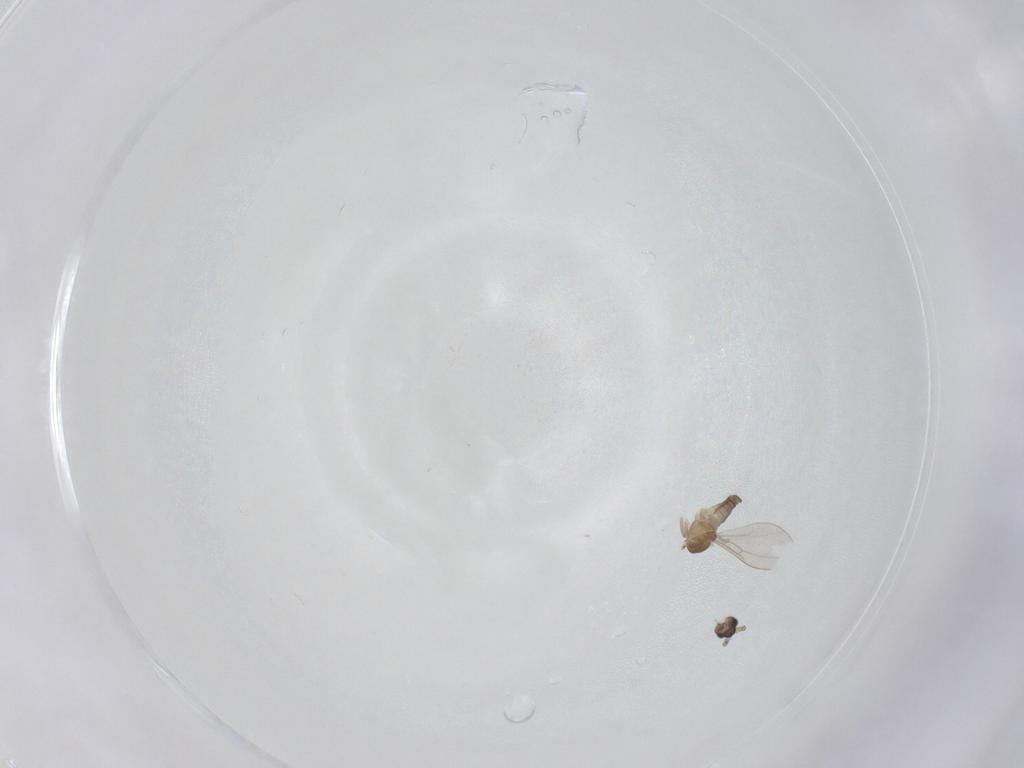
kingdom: Animalia
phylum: Arthropoda
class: Insecta
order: Diptera
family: Cecidomyiidae
